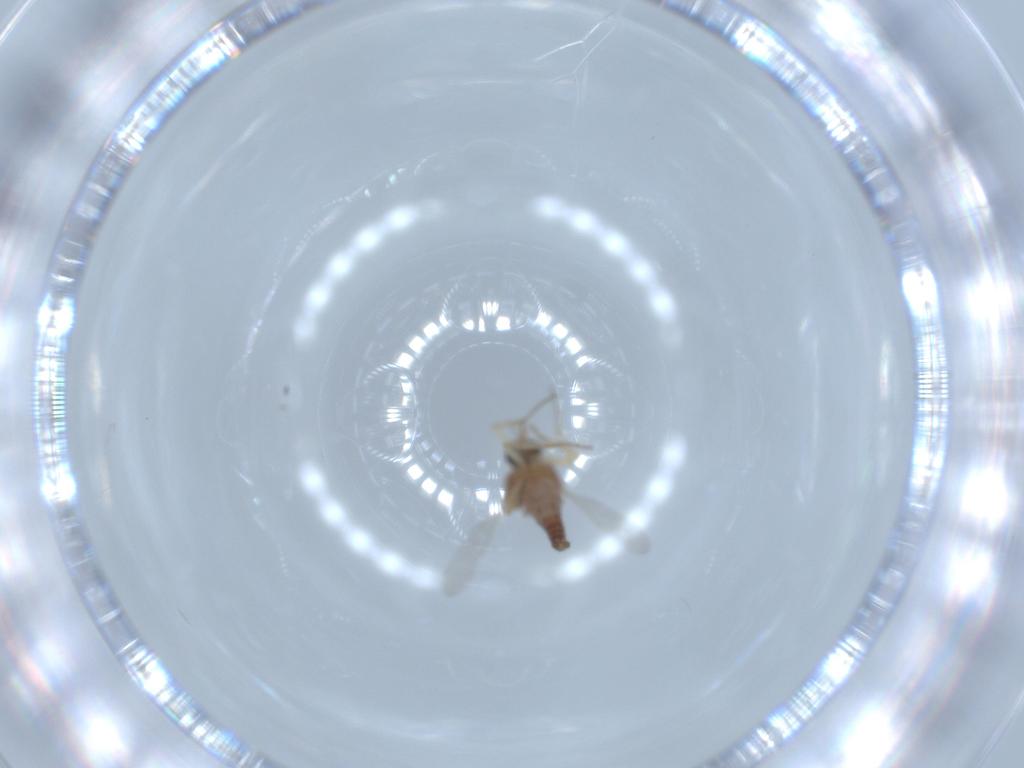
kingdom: Animalia
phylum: Arthropoda
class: Insecta
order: Diptera
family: Ceratopogonidae
